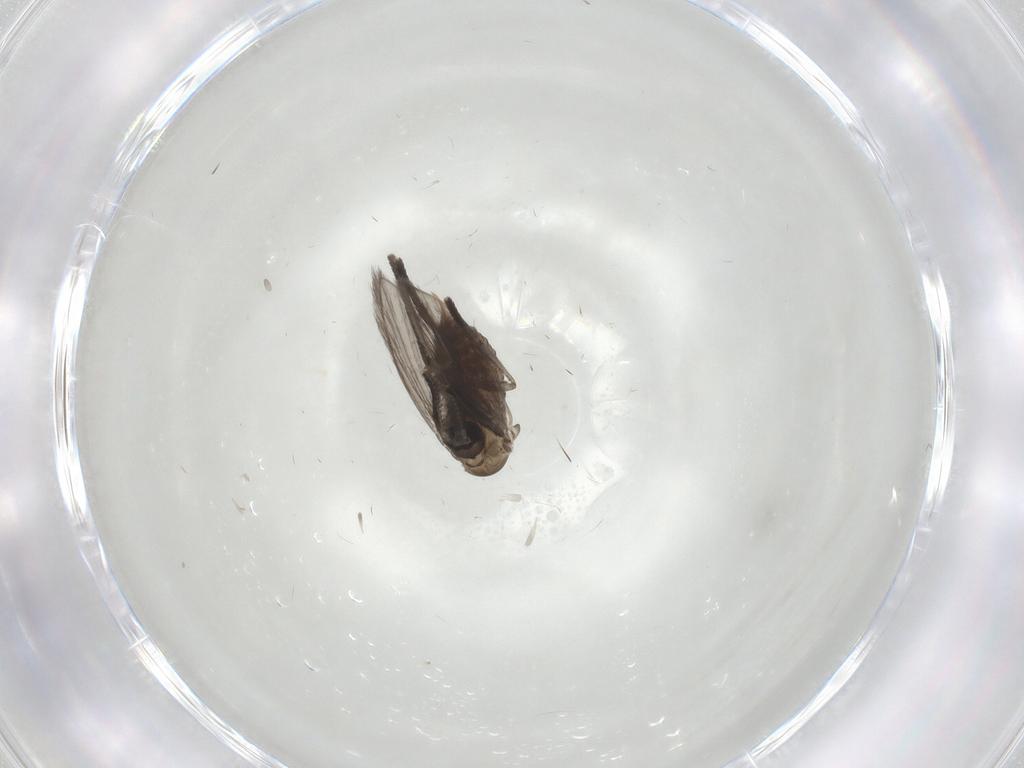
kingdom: Animalia
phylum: Arthropoda
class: Insecta
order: Diptera
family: Psychodidae
